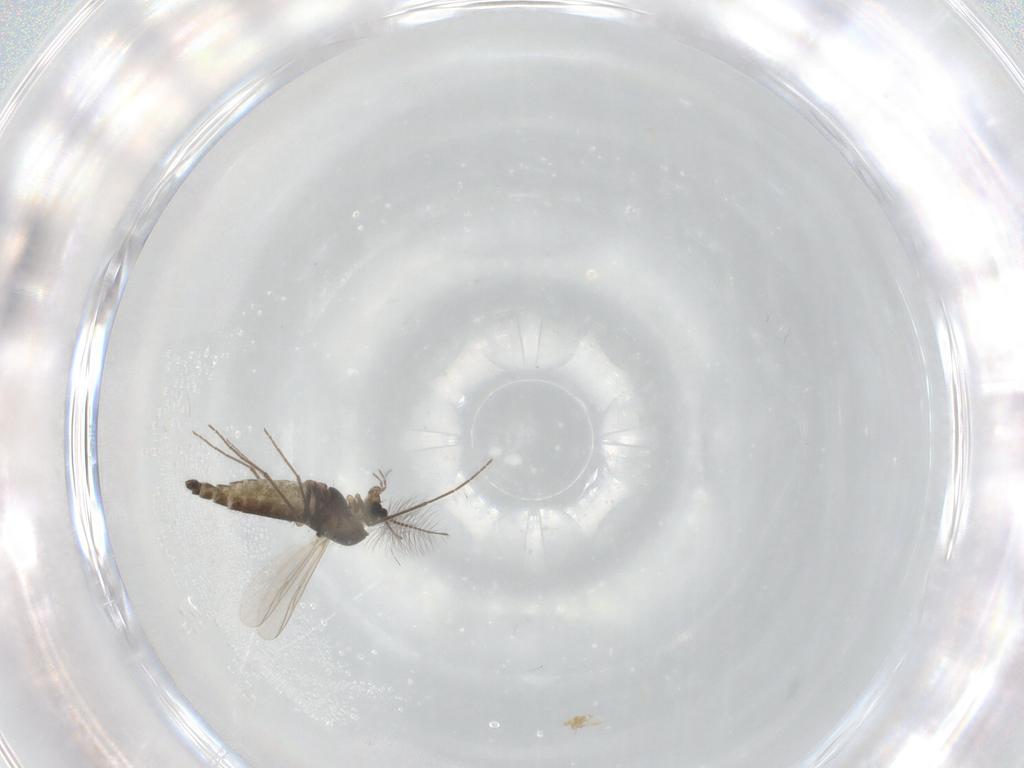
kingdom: Animalia
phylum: Arthropoda
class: Insecta
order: Diptera
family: Chironomidae
